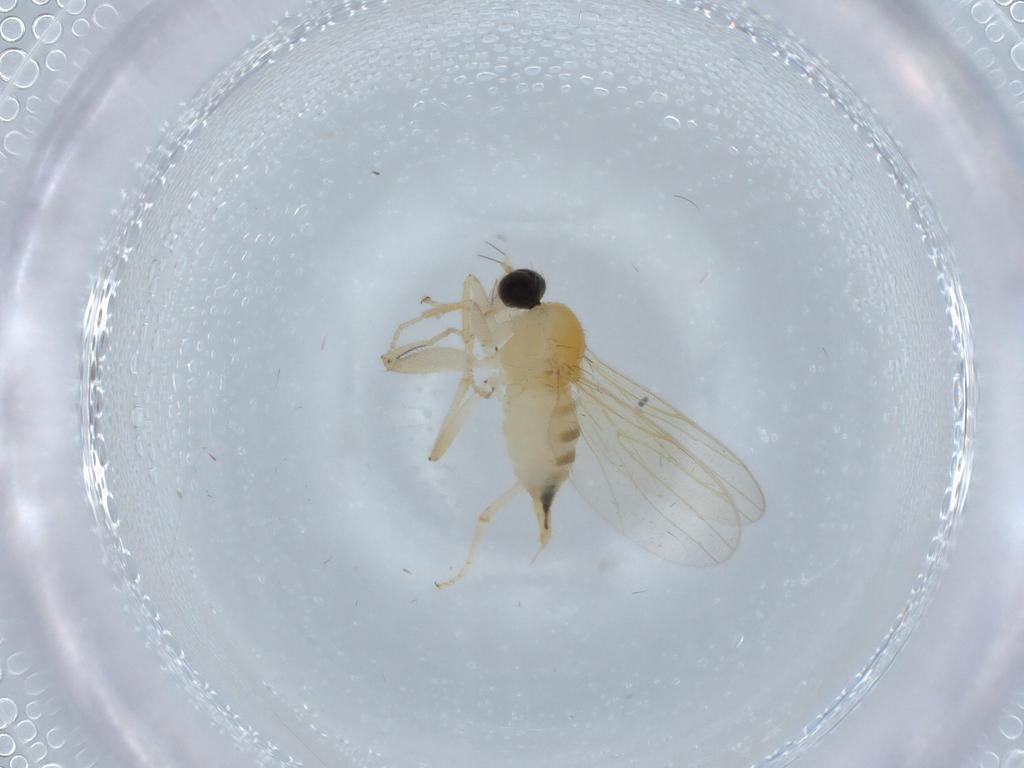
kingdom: Animalia
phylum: Arthropoda
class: Insecta
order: Diptera
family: Hybotidae
